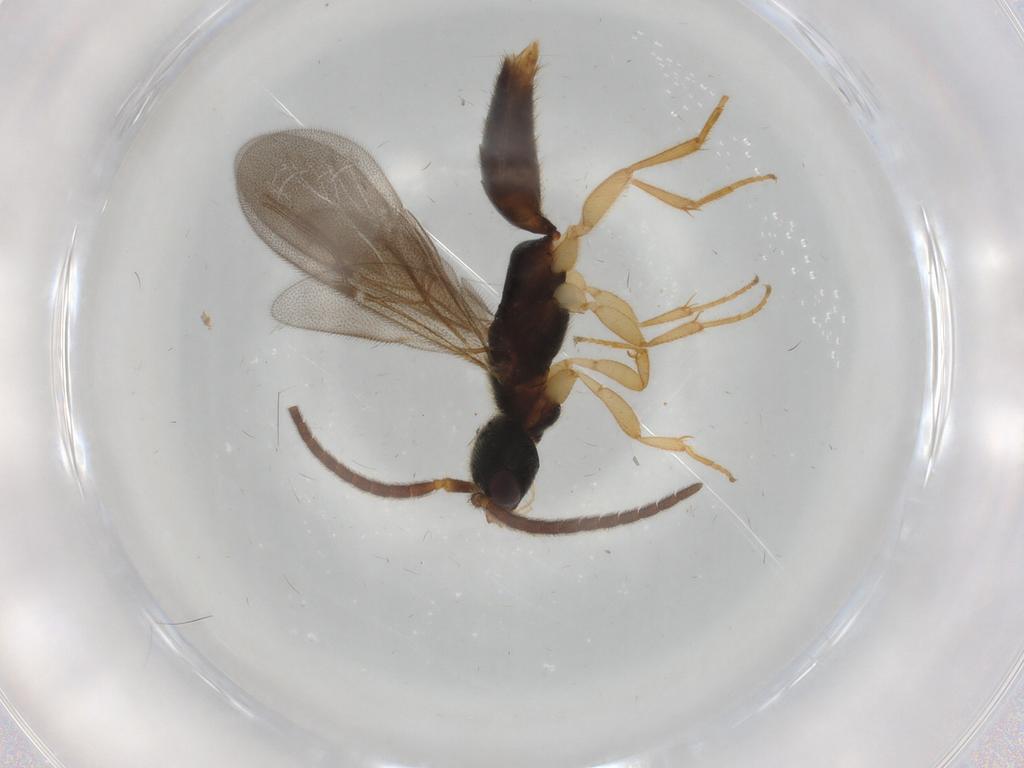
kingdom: Animalia
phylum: Arthropoda
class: Insecta
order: Hymenoptera
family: Bethylidae
